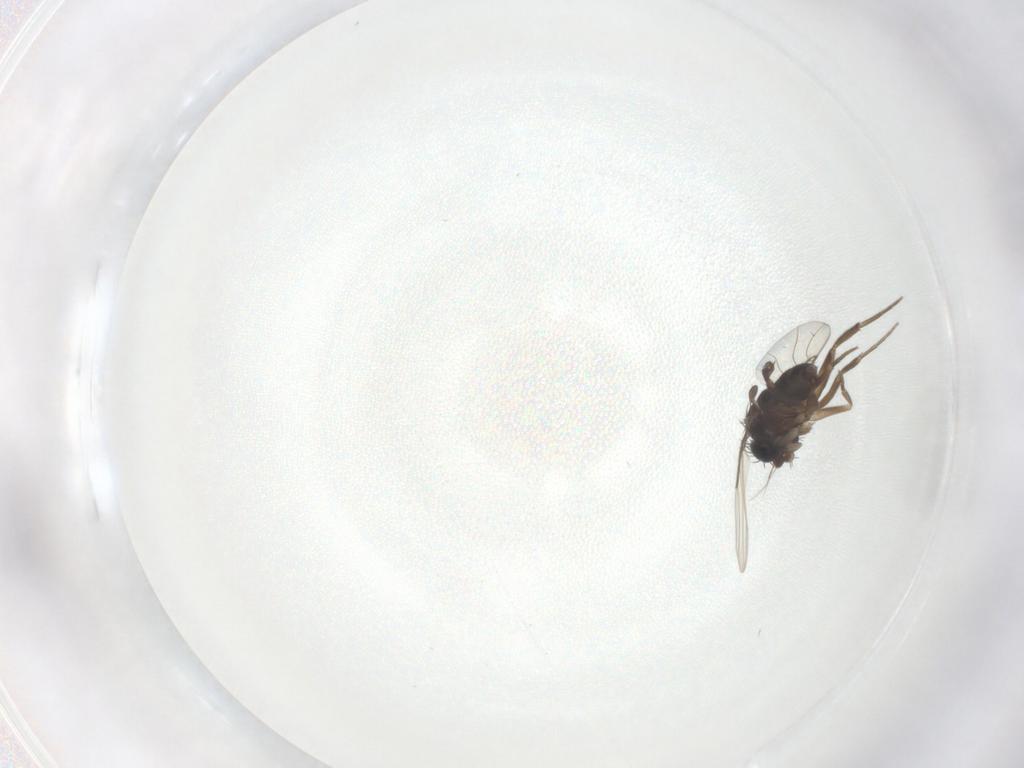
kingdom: Animalia
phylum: Arthropoda
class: Insecta
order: Diptera
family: Phoridae
